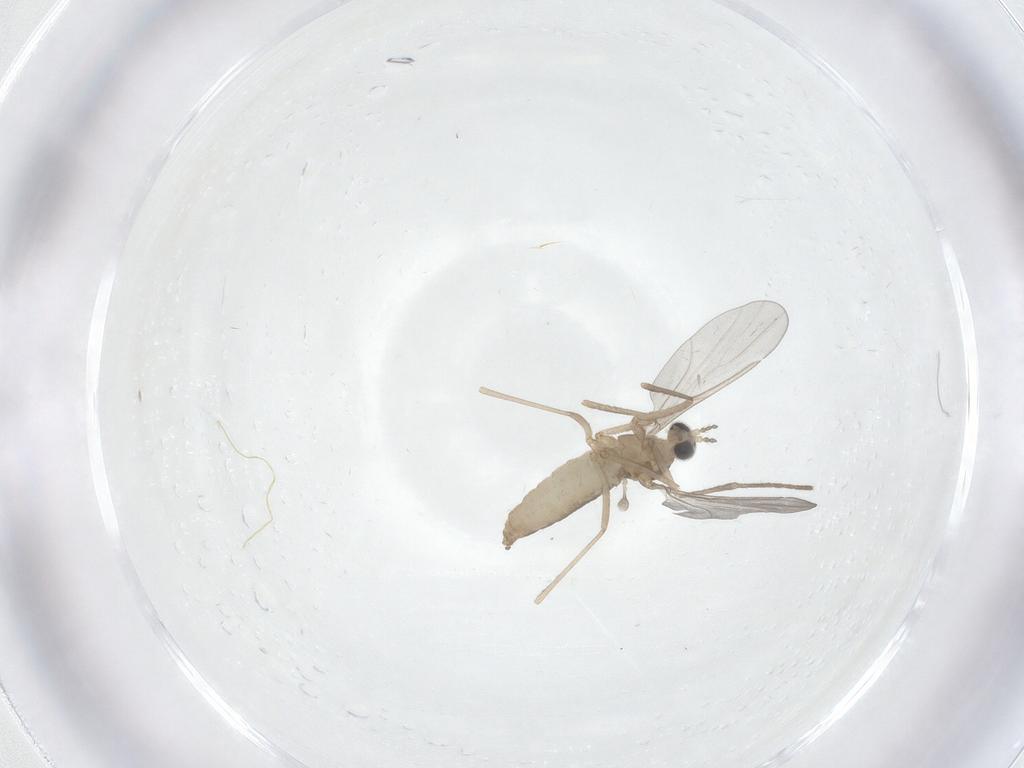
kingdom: Animalia
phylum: Arthropoda
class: Insecta
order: Diptera
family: Cecidomyiidae
